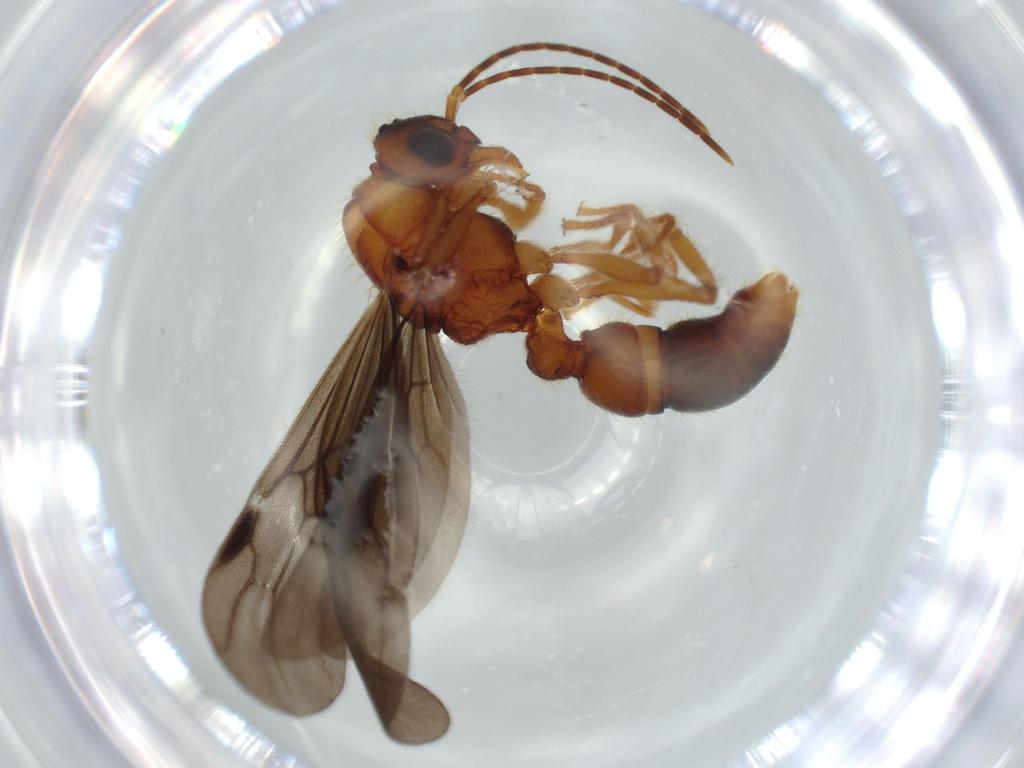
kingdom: Animalia
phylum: Arthropoda
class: Insecta
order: Hymenoptera
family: Formicidae
